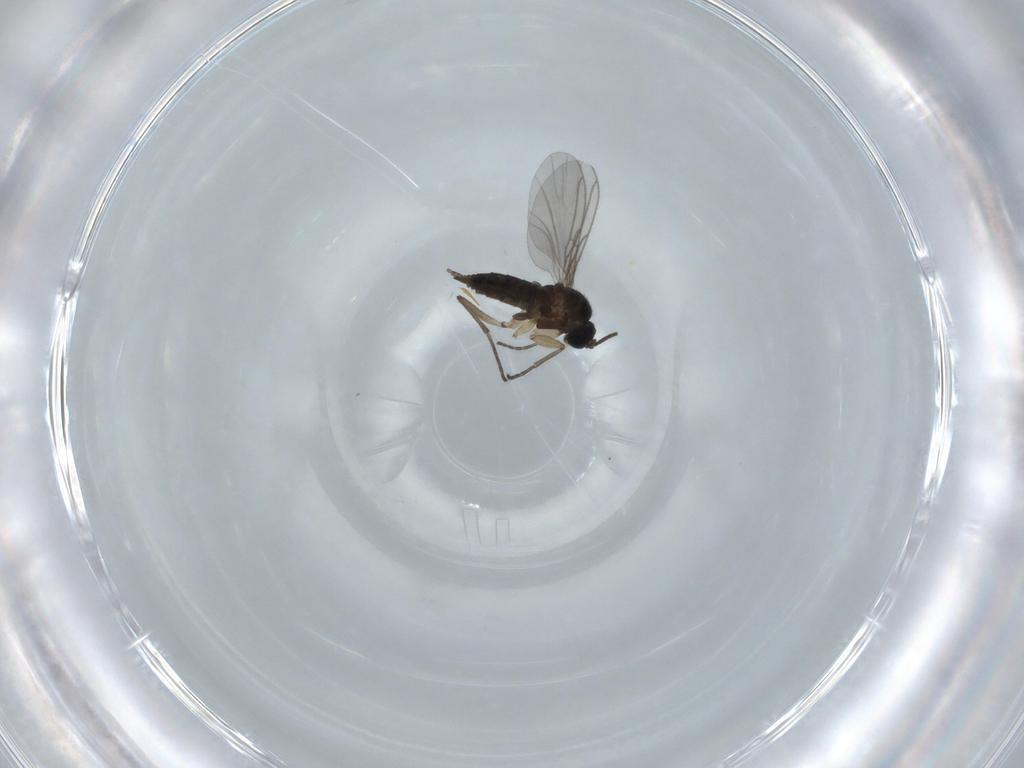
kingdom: Animalia
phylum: Arthropoda
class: Insecta
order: Diptera
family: Sciaridae
